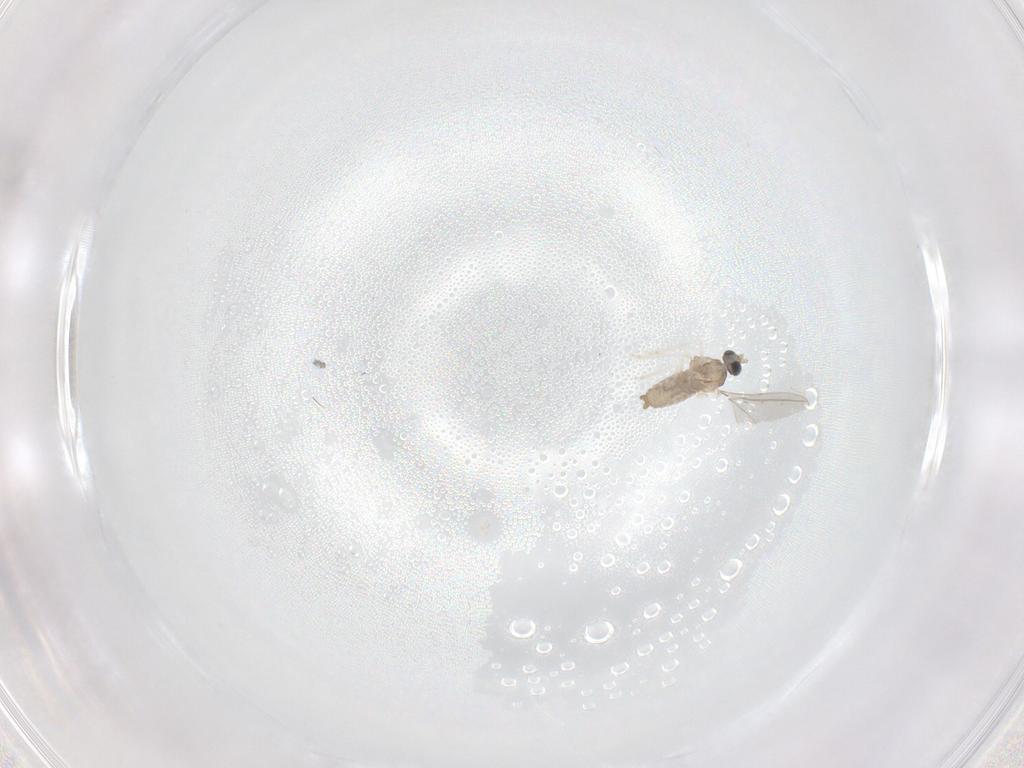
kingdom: Animalia
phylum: Arthropoda
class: Insecta
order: Diptera
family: Cecidomyiidae
